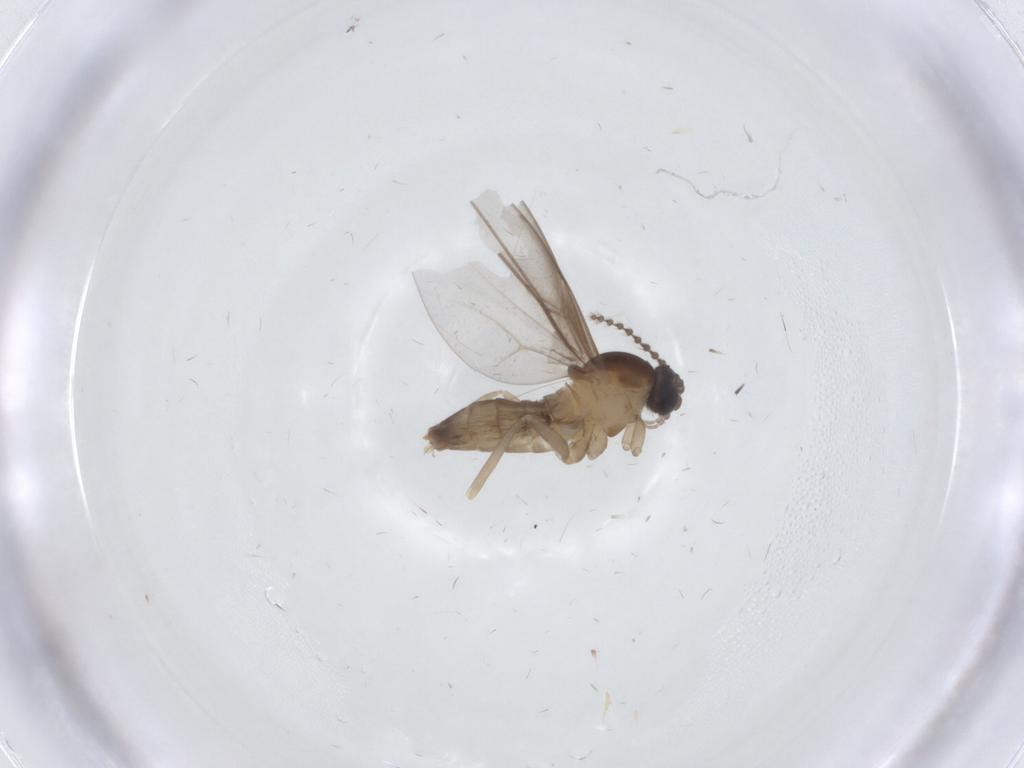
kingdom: Animalia
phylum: Arthropoda
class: Insecta
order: Diptera
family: Cecidomyiidae
